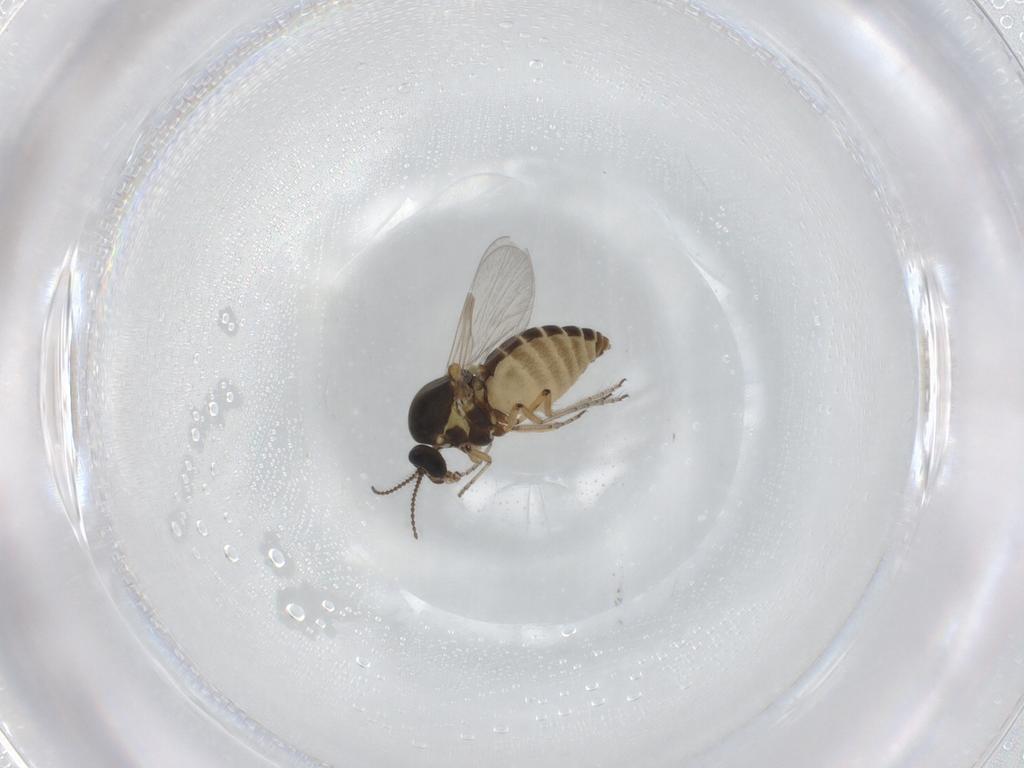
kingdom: Animalia
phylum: Arthropoda
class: Insecta
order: Diptera
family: Ceratopogonidae
